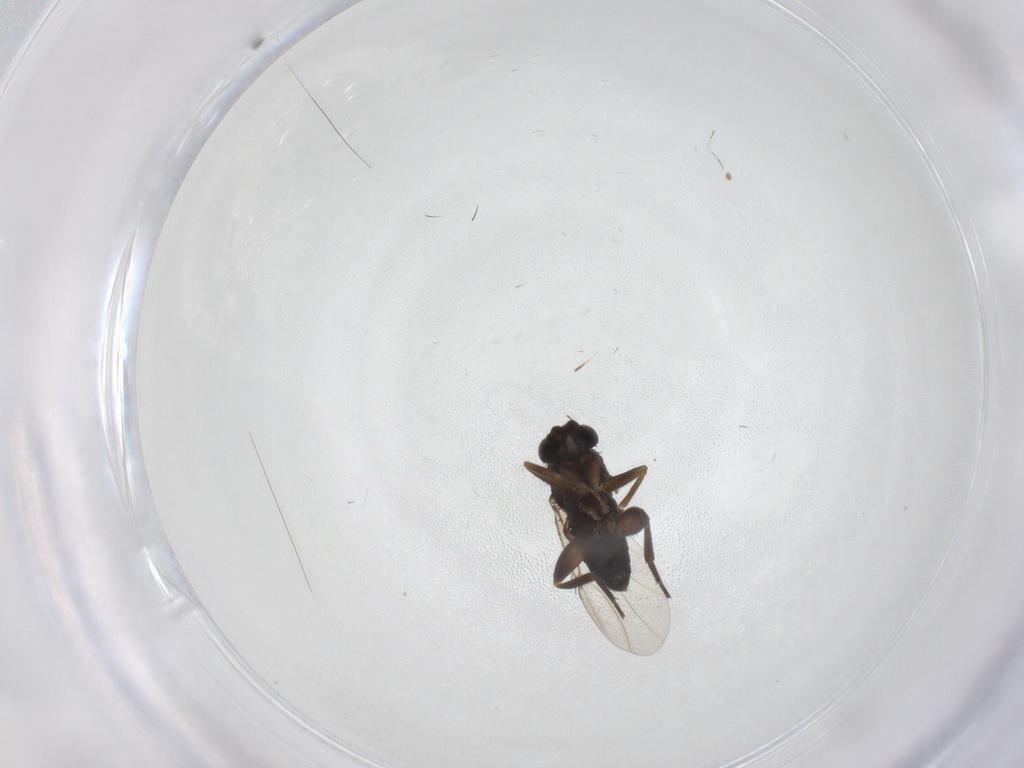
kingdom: Animalia
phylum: Arthropoda
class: Insecta
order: Diptera
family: Phoridae
